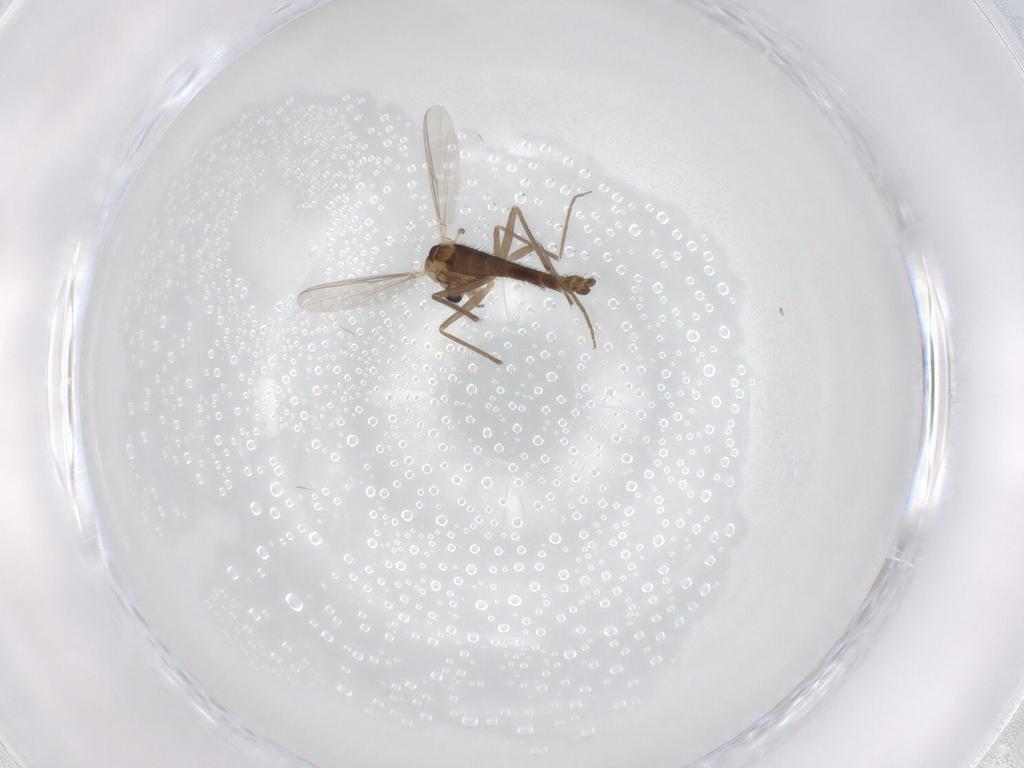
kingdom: Animalia
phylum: Arthropoda
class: Insecta
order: Diptera
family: Chironomidae
